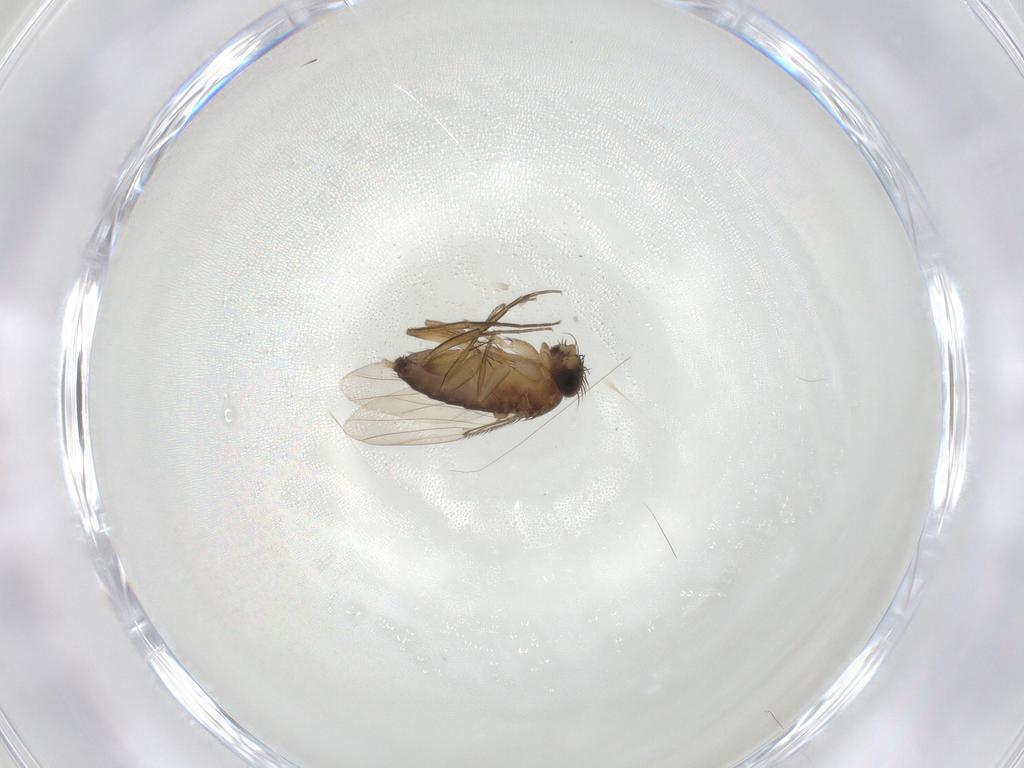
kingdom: Animalia
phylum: Arthropoda
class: Insecta
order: Diptera
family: Phoridae
